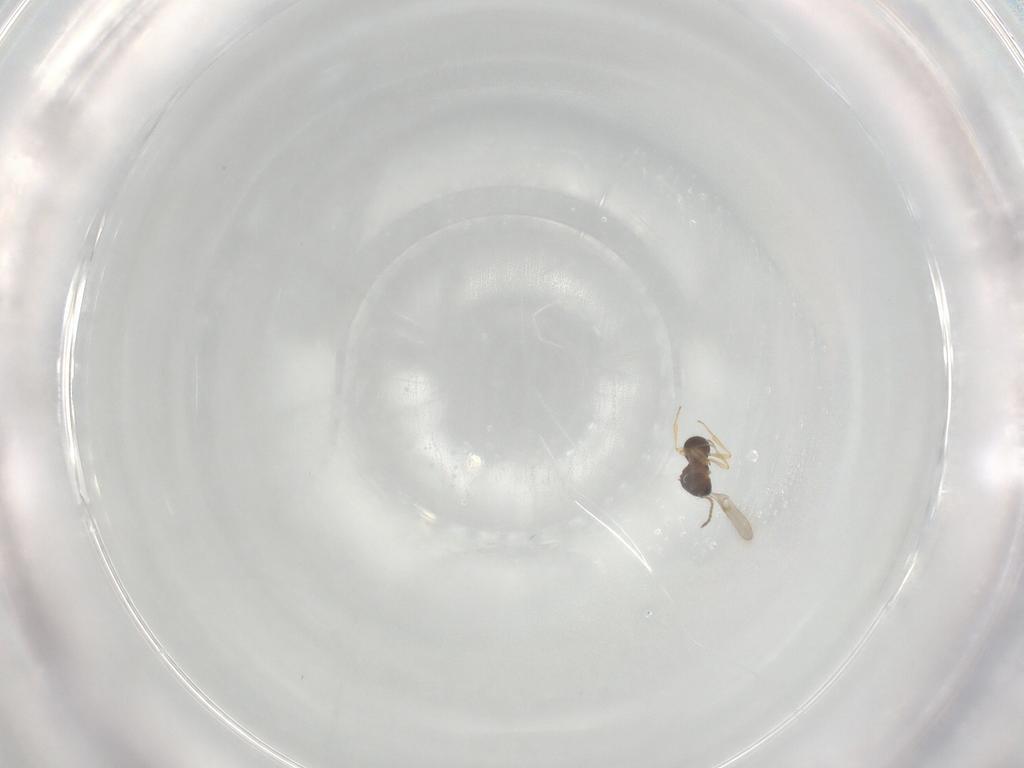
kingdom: Animalia
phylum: Arthropoda
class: Insecta
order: Hymenoptera
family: Scelionidae
